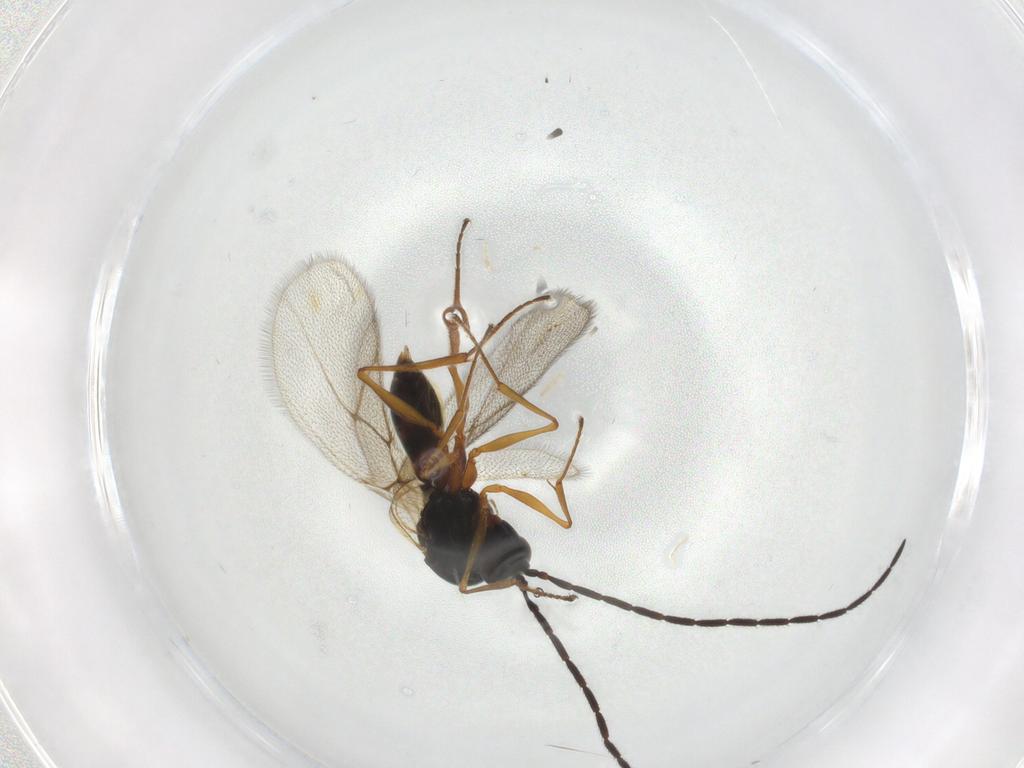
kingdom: Animalia
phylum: Arthropoda
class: Insecta
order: Hymenoptera
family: Figitidae
